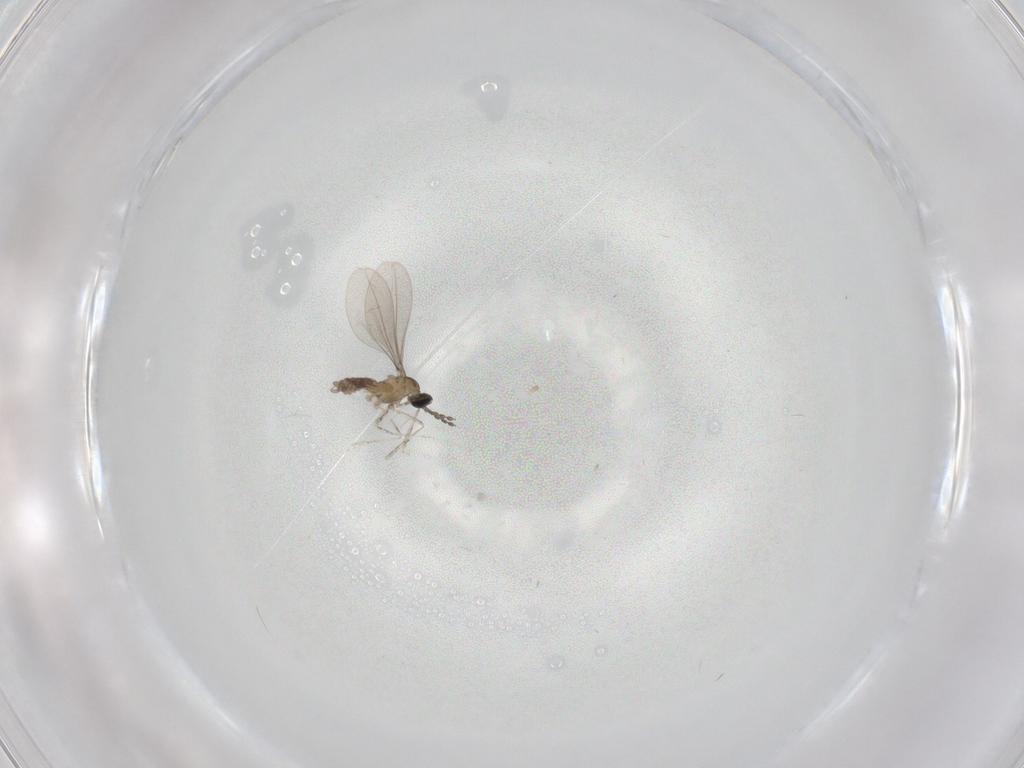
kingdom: Animalia
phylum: Arthropoda
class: Insecta
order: Diptera
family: Cecidomyiidae
